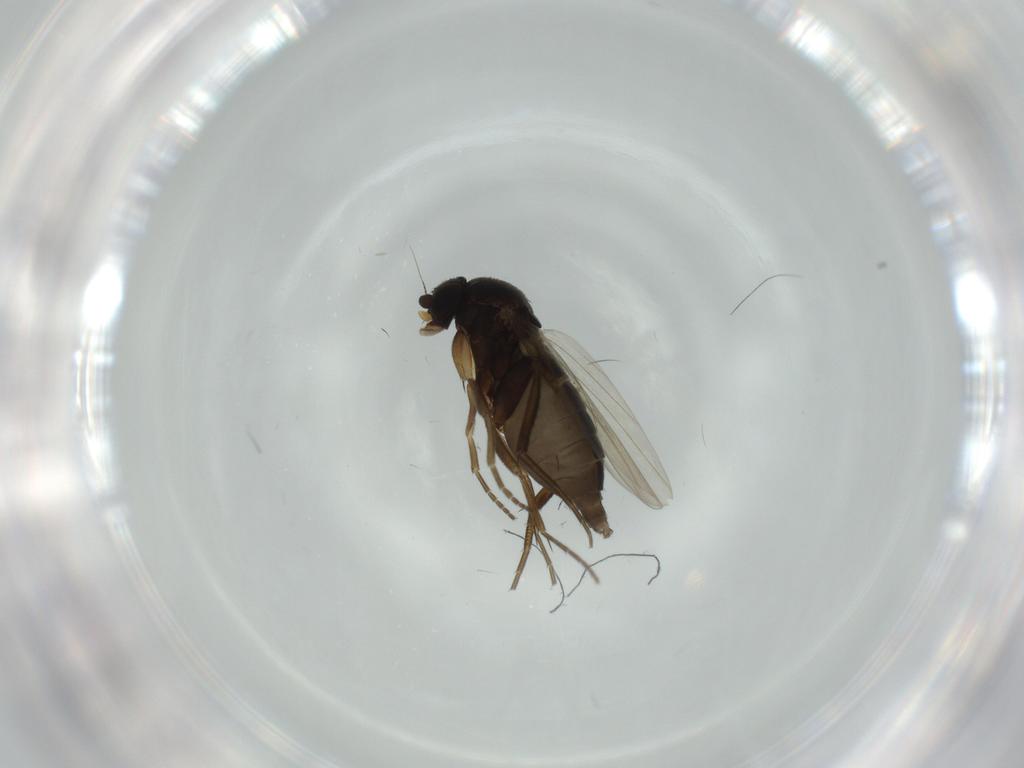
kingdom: Animalia
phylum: Arthropoda
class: Insecta
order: Diptera
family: Phoridae
